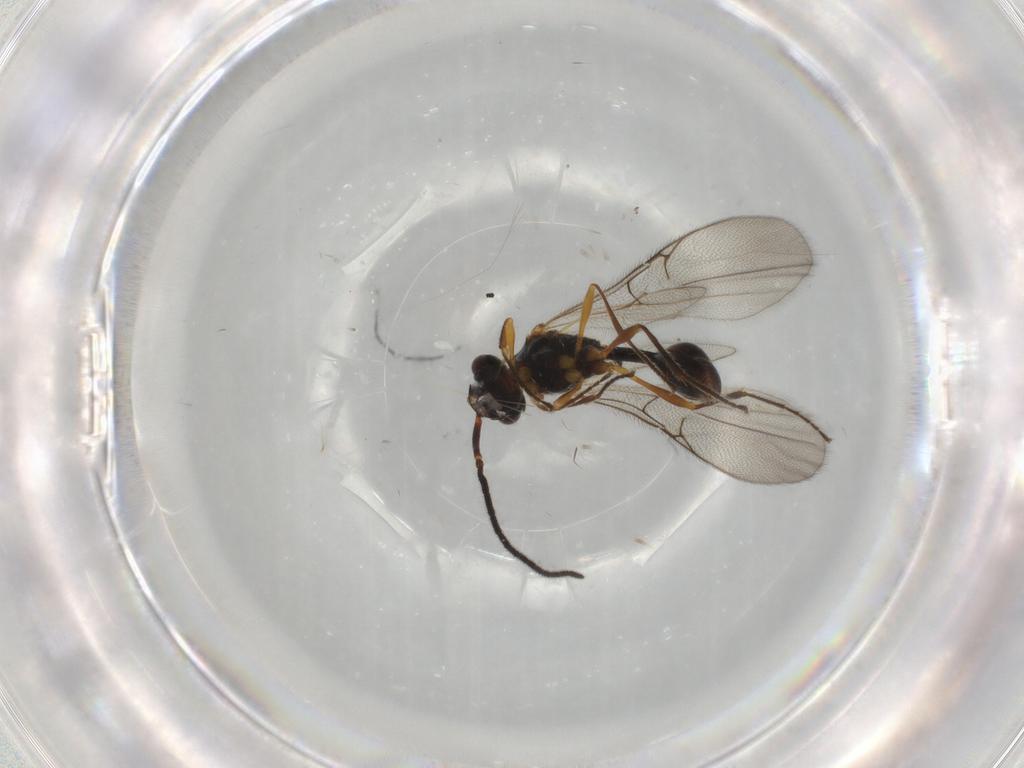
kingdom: Animalia
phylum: Arthropoda
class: Insecta
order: Hymenoptera
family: Diapriidae
